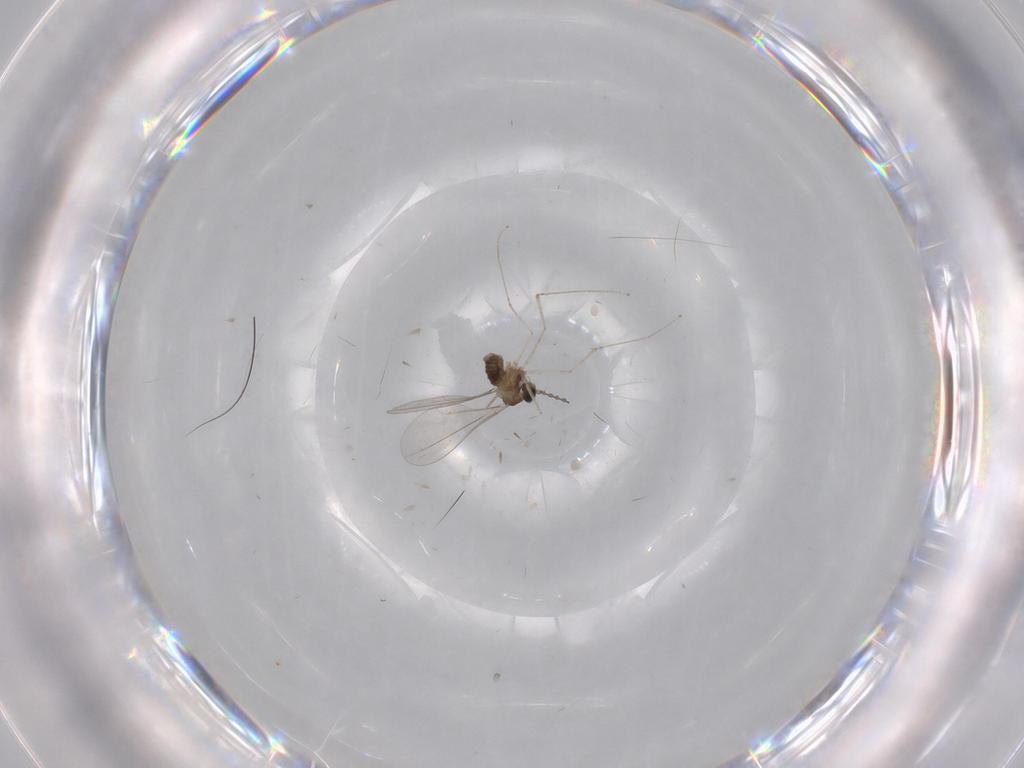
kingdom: Animalia
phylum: Arthropoda
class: Insecta
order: Diptera
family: Cecidomyiidae
